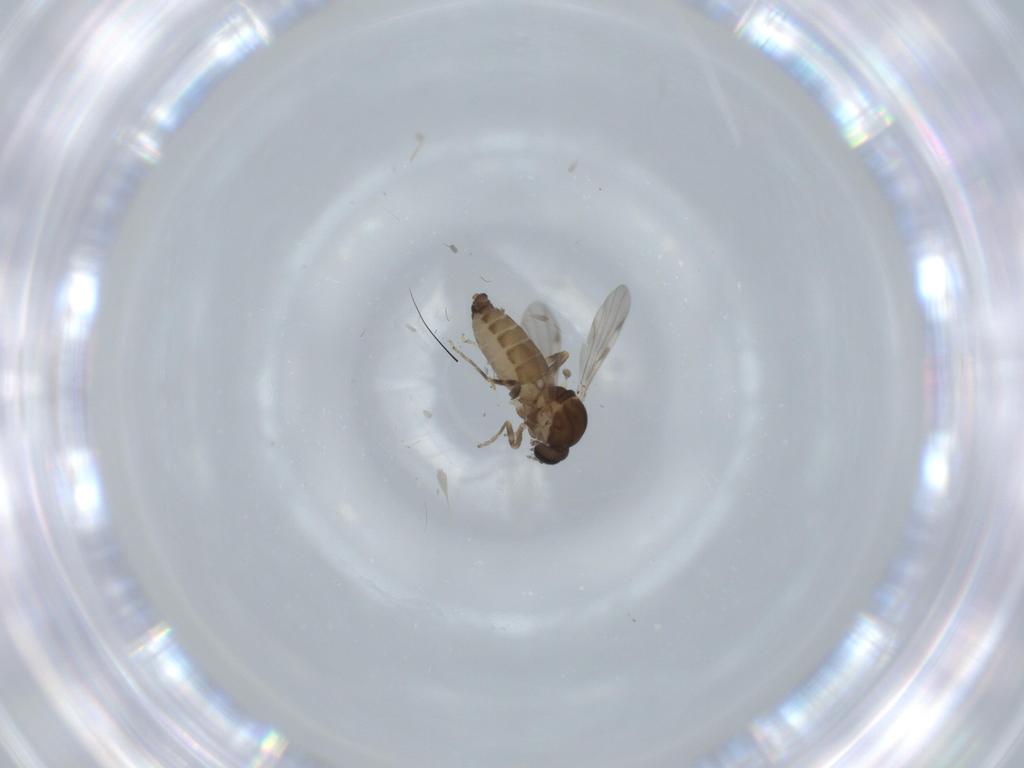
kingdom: Animalia
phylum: Arthropoda
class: Insecta
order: Diptera
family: Ceratopogonidae
